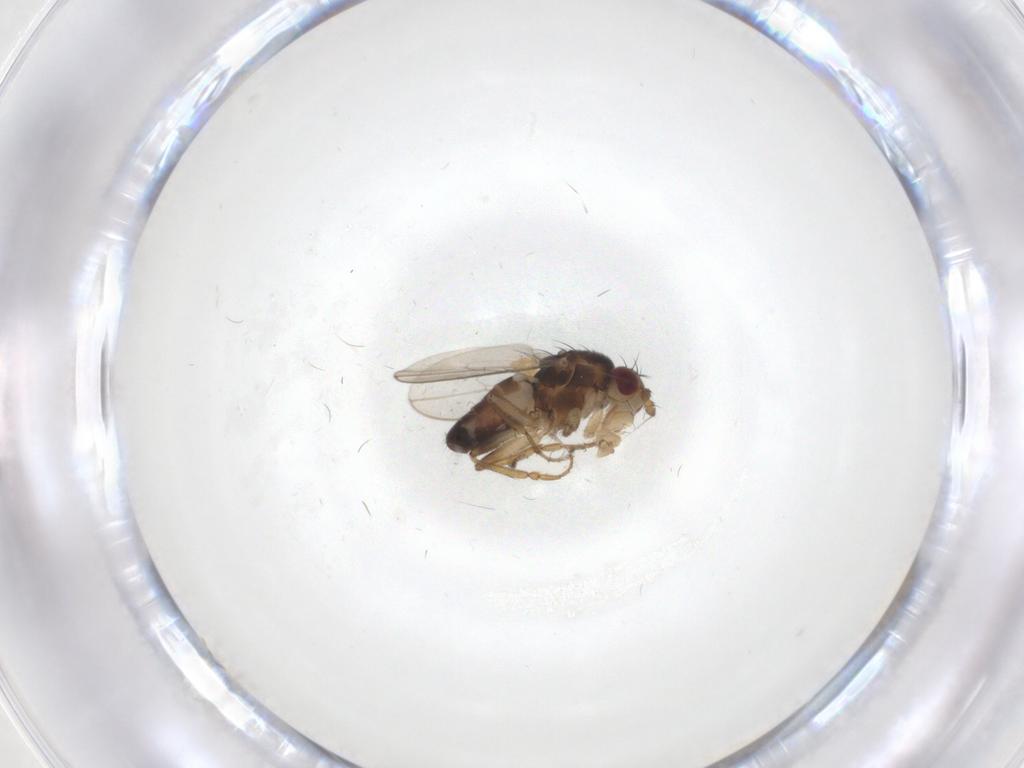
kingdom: Animalia
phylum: Arthropoda
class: Insecta
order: Diptera
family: Sphaeroceridae
